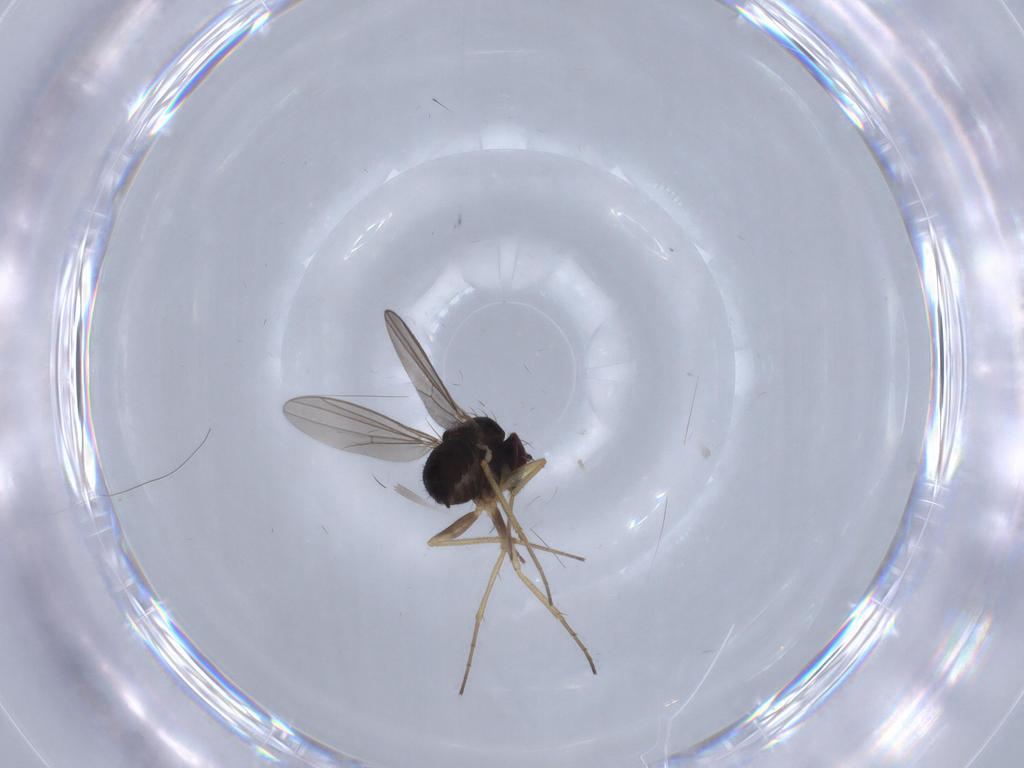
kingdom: Animalia
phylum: Arthropoda
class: Insecta
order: Diptera
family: Dolichopodidae
